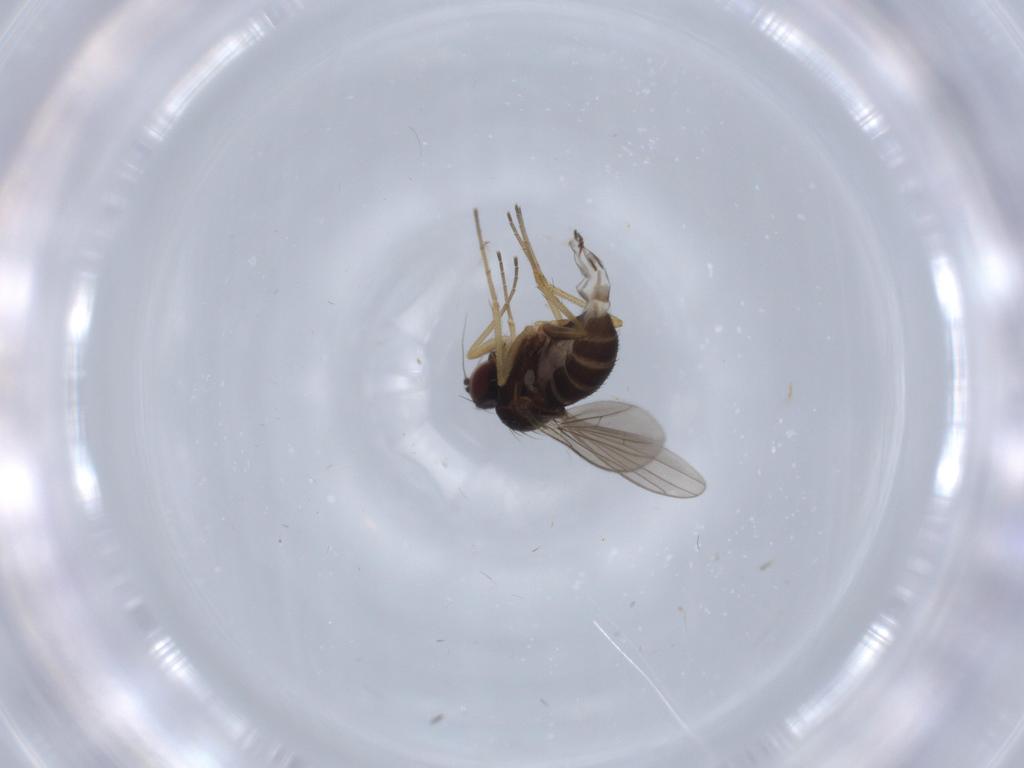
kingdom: Animalia
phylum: Arthropoda
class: Insecta
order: Diptera
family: Dolichopodidae
